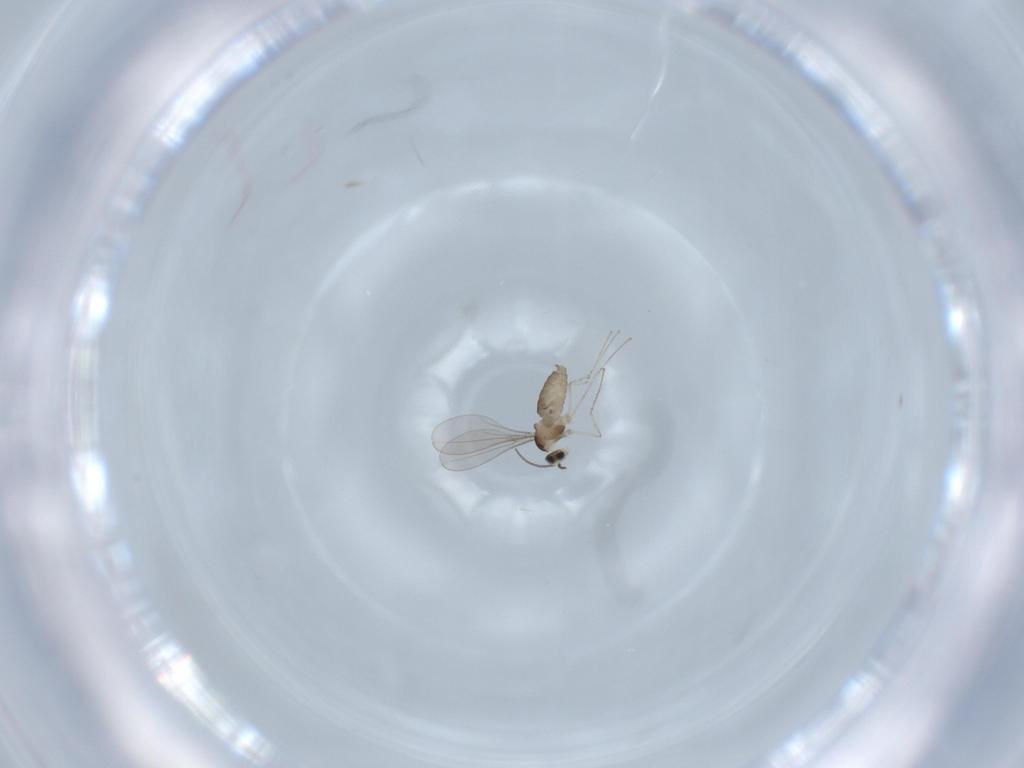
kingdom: Animalia
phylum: Arthropoda
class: Insecta
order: Diptera
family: Cecidomyiidae
